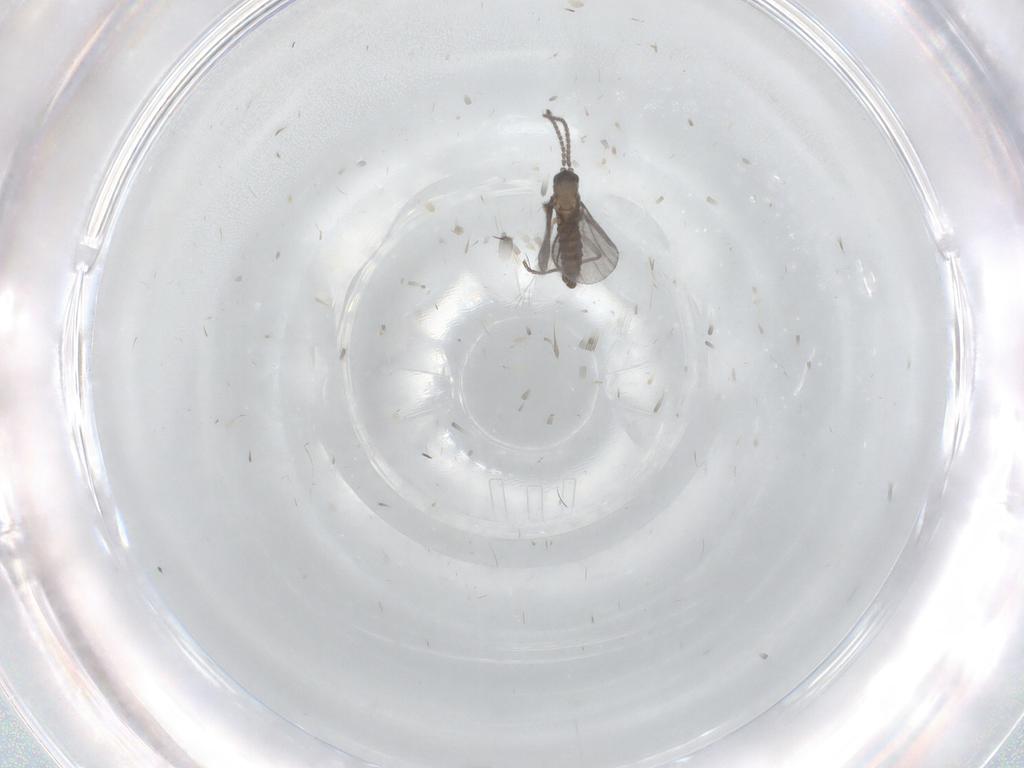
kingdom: Animalia
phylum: Arthropoda
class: Insecta
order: Diptera
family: Sciaridae
